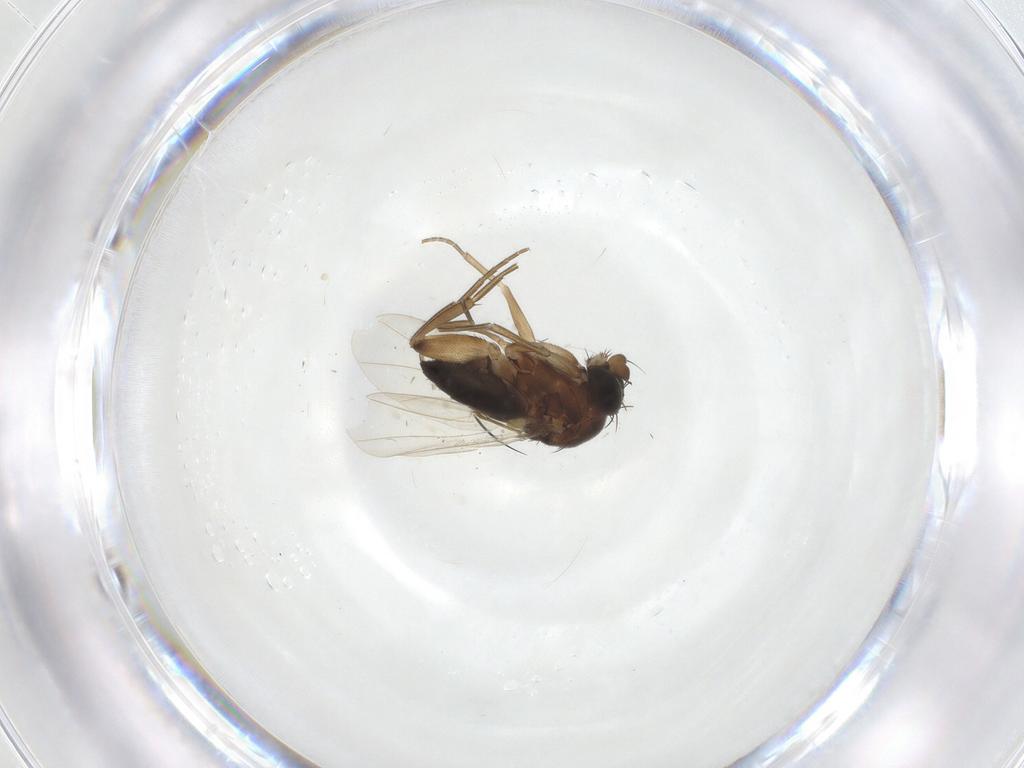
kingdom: Animalia
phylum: Arthropoda
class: Insecta
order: Diptera
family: Phoridae
